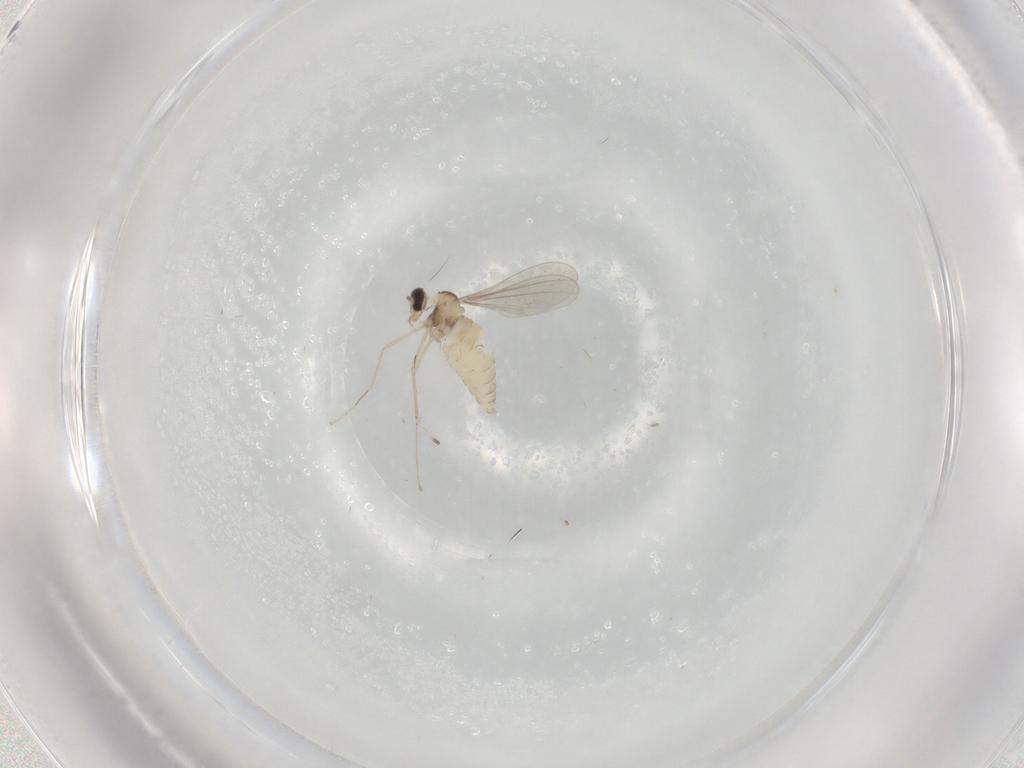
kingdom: Animalia
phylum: Arthropoda
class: Insecta
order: Diptera
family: Cecidomyiidae
